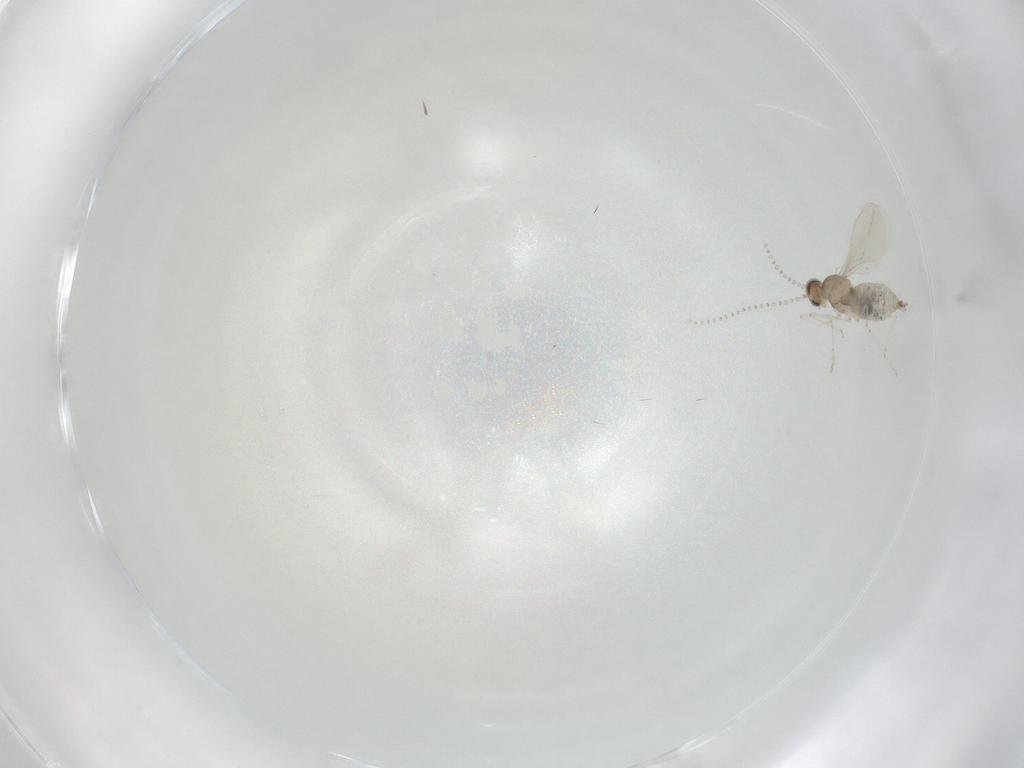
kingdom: Animalia
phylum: Arthropoda
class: Insecta
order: Diptera
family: Cecidomyiidae
